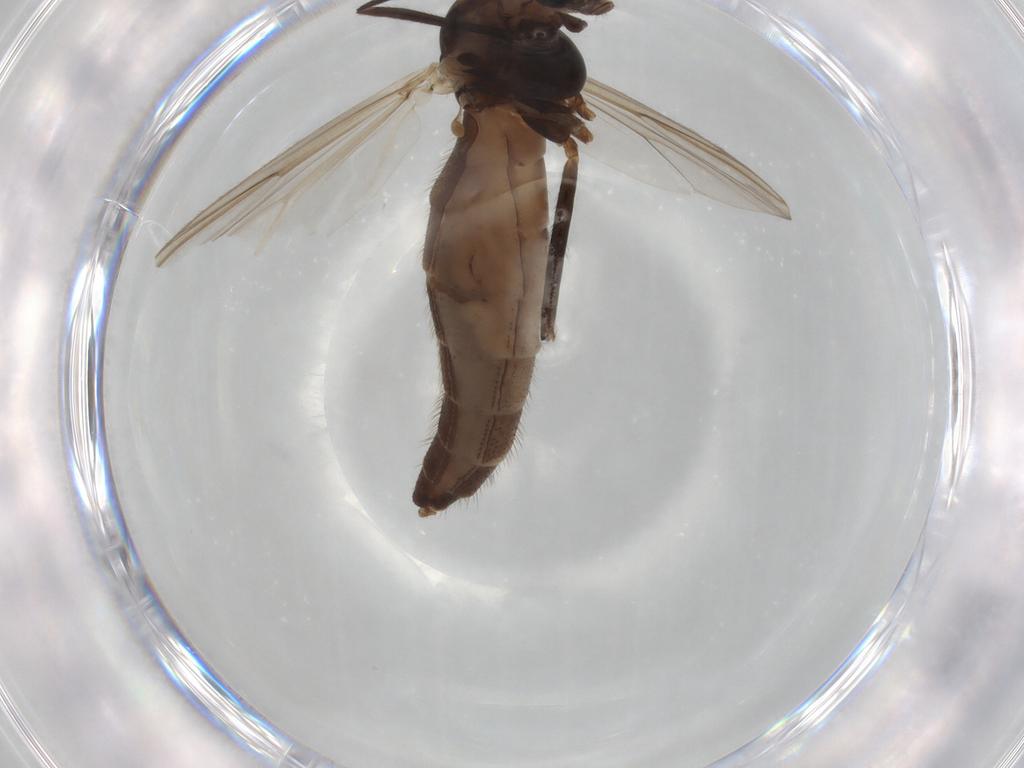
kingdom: Animalia
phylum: Arthropoda
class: Insecta
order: Diptera
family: Chironomidae
